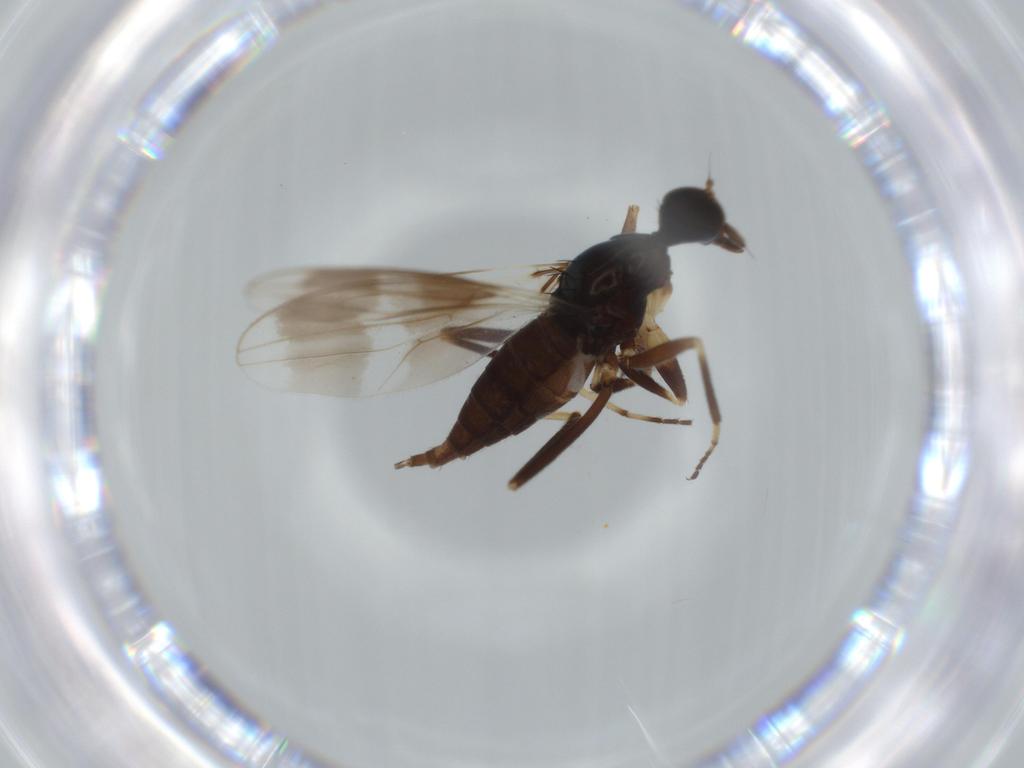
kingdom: Animalia
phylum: Arthropoda
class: Insecta
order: Diptera
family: Hybotidae
